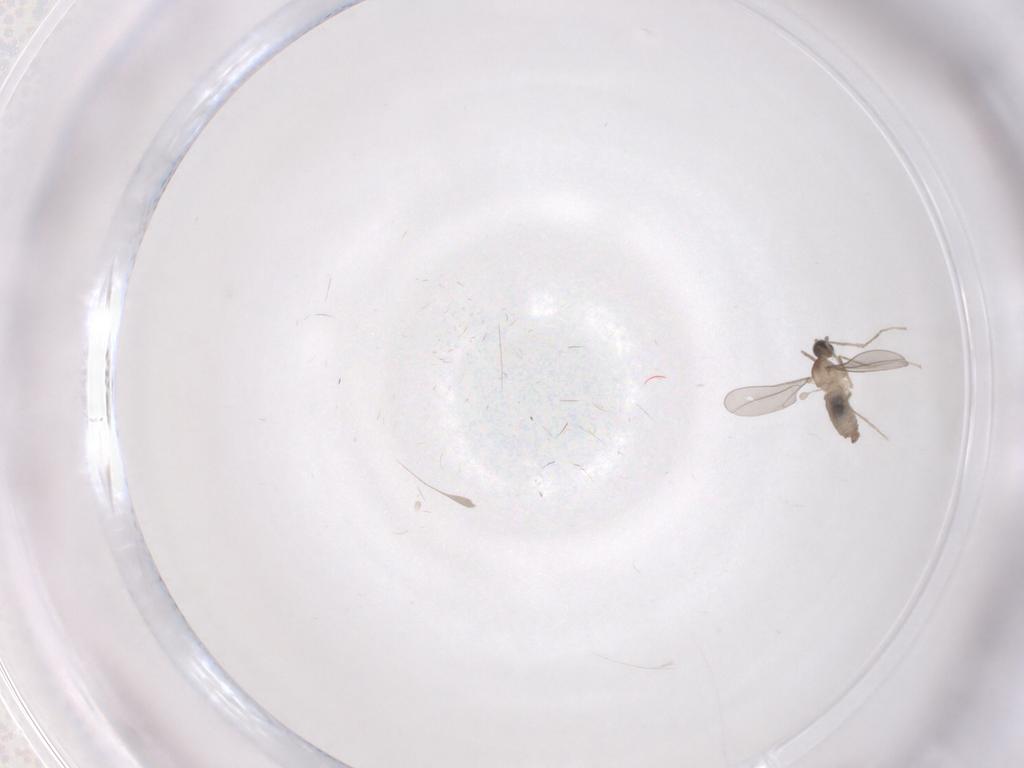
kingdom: Animalia
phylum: Arthropoda
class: Insecta
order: Diptera
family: Cecidomyiidae
